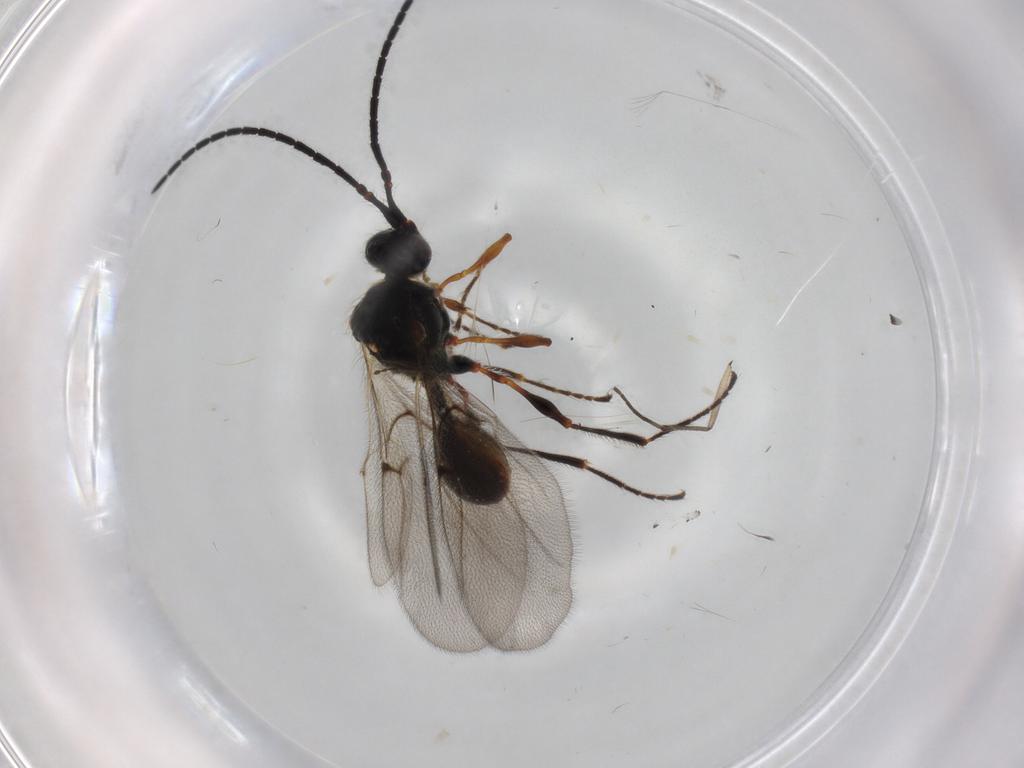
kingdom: Animalia
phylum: Arthropoda
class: Insecta
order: Hymenoptera
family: Diapriidae
